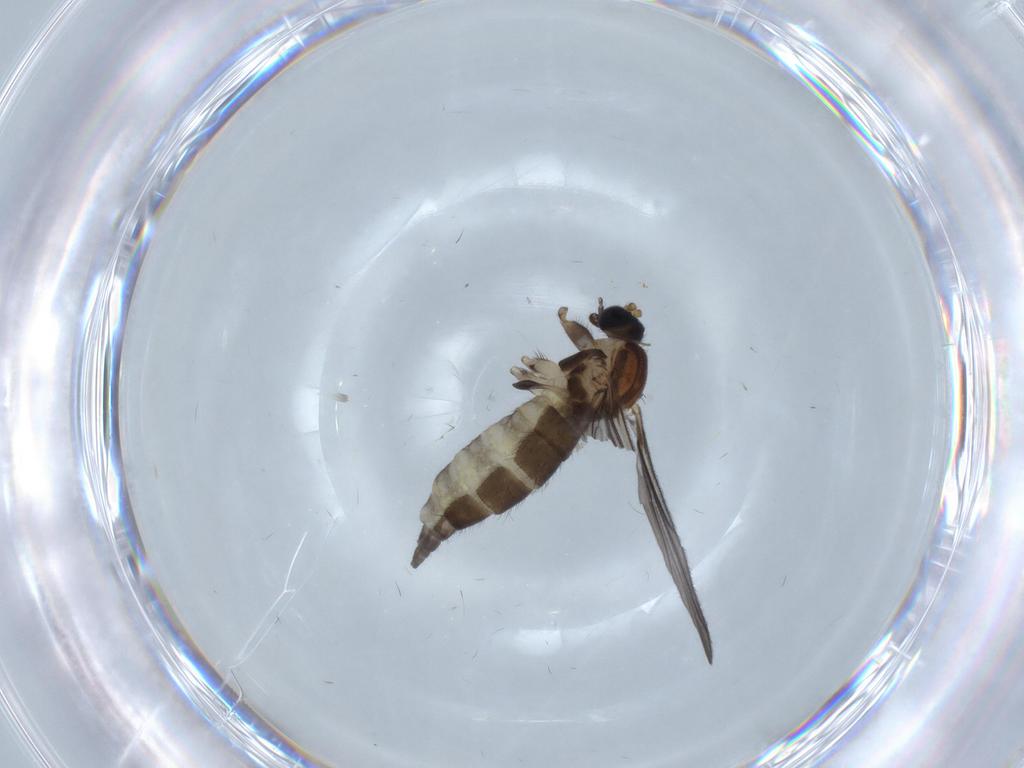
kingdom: Animalia
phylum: Arthropoda
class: Insecta
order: Diptera
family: Sciaridae
